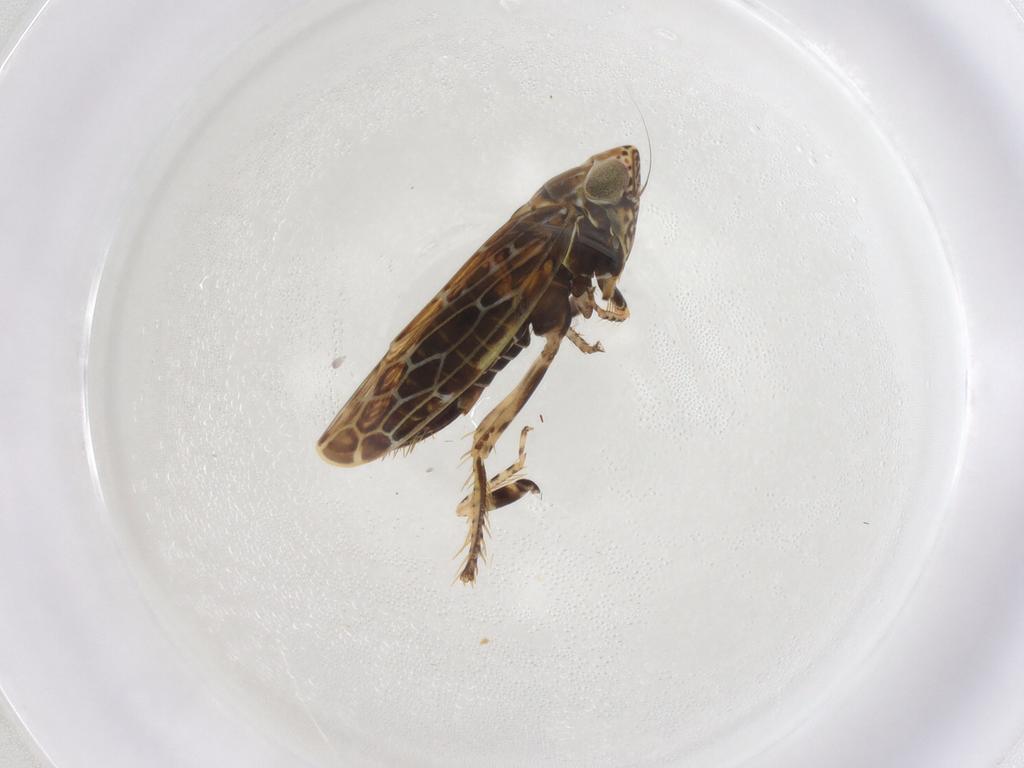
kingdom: Animalia
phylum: Arthropoda
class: Insecta
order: Hemiptera
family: Cicadellidae
